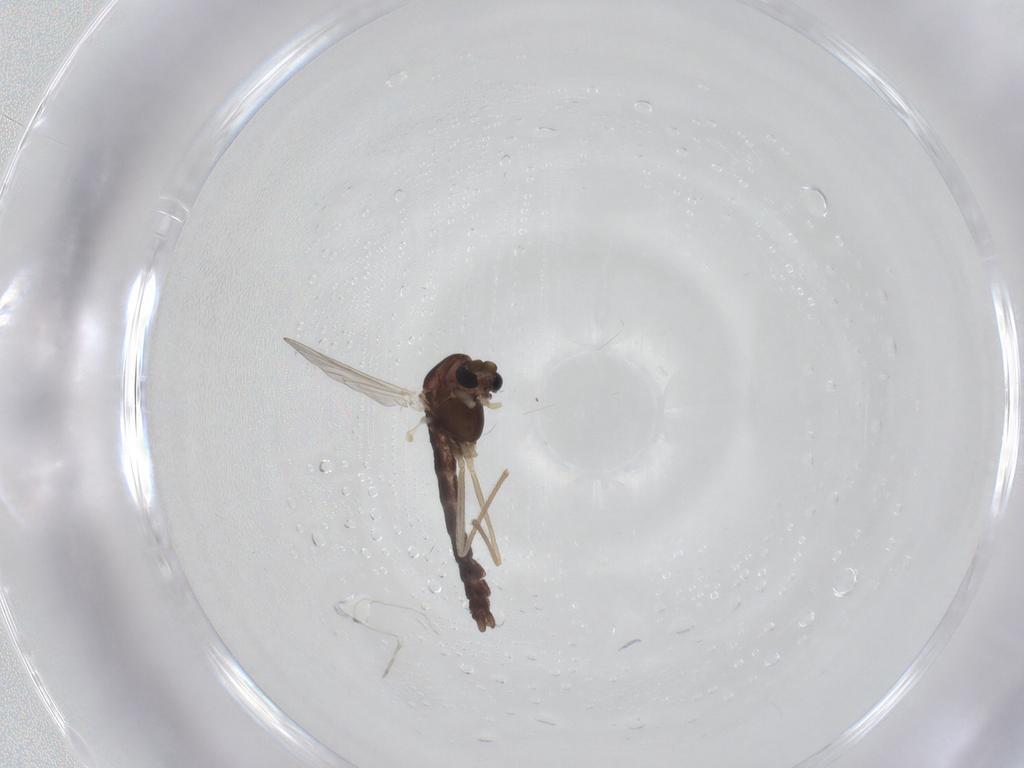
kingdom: Animalia
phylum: Arthropoda
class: Insecta
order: Diptera
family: Chironomidae
